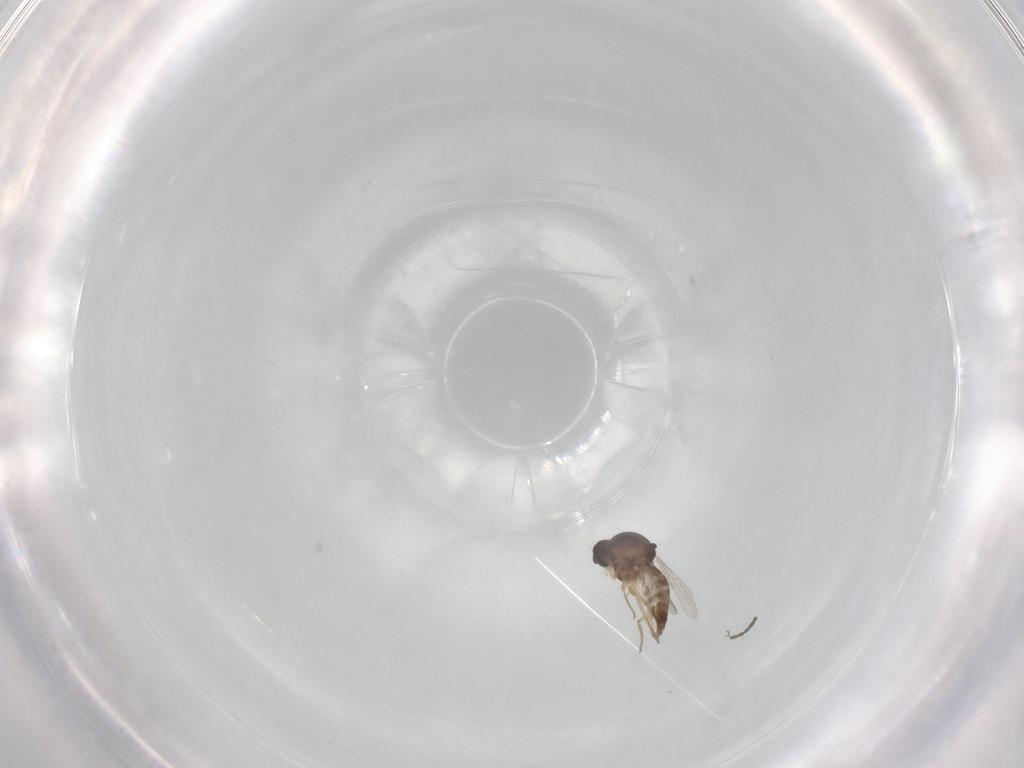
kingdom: Animalia
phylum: Arthropoda
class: Insecta
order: Diptera
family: Ceratopogonidae
